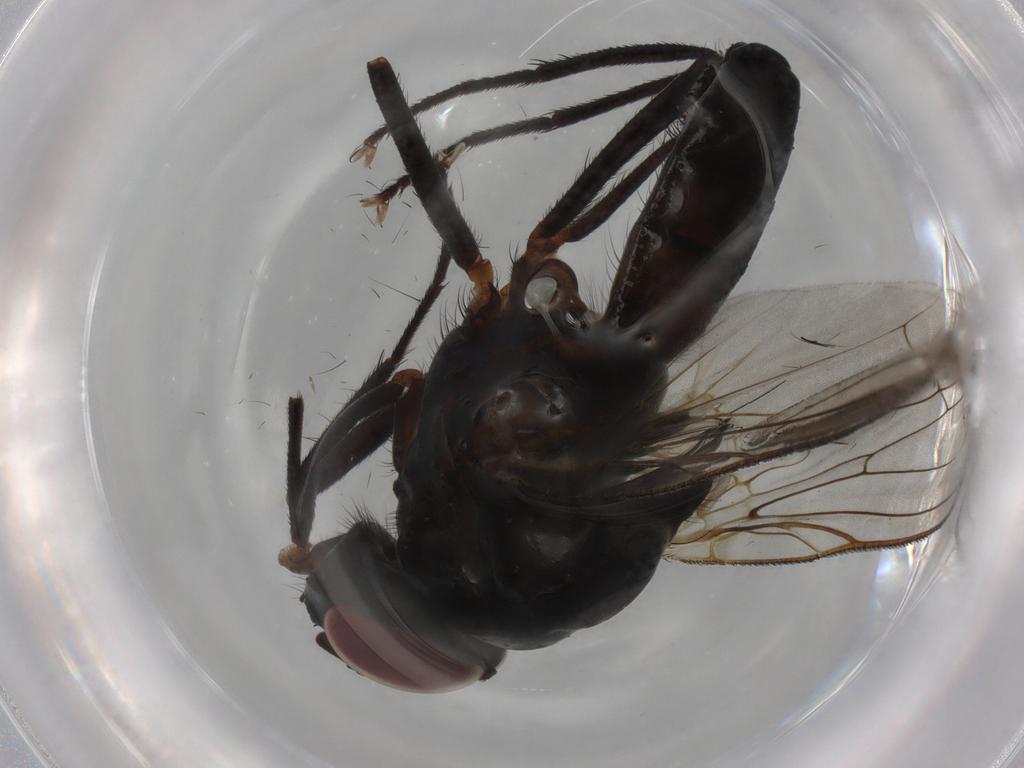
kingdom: Animalia
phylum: Arthropoda
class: Insecta
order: Diptera
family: Anthomyiidae
